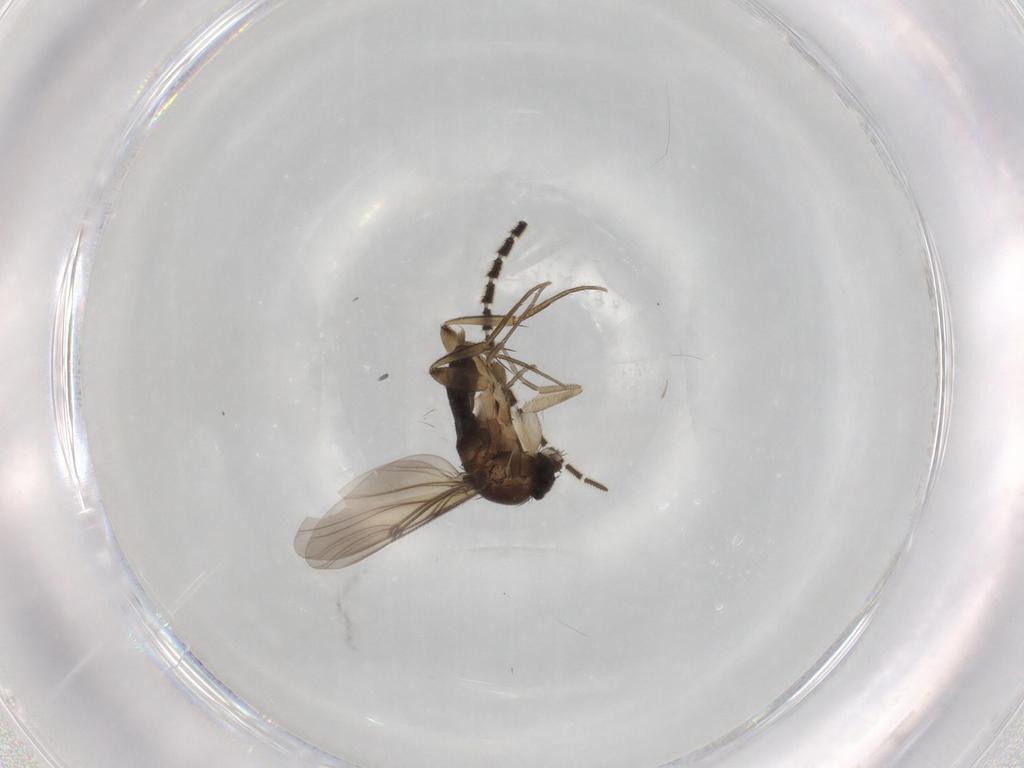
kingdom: Animalia
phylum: Arthropoda
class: Insecta
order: Diptera
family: Sciaridae
